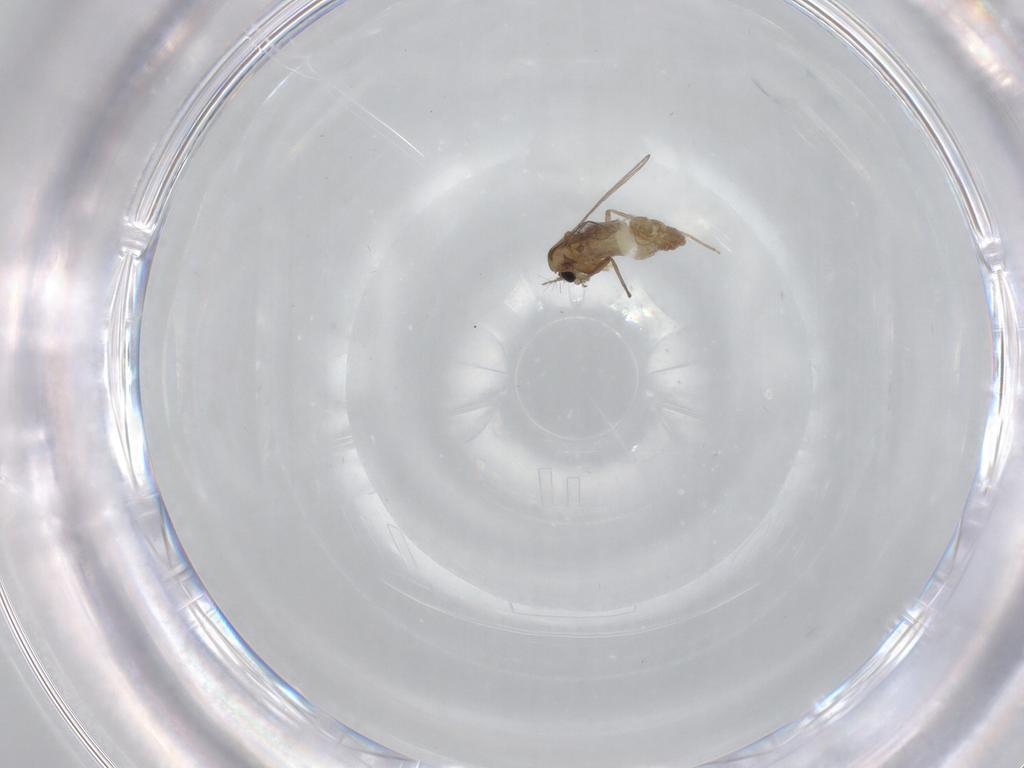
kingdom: Animalia
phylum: Arthropoda
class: Insecta
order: Diptera
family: Chironomidae
